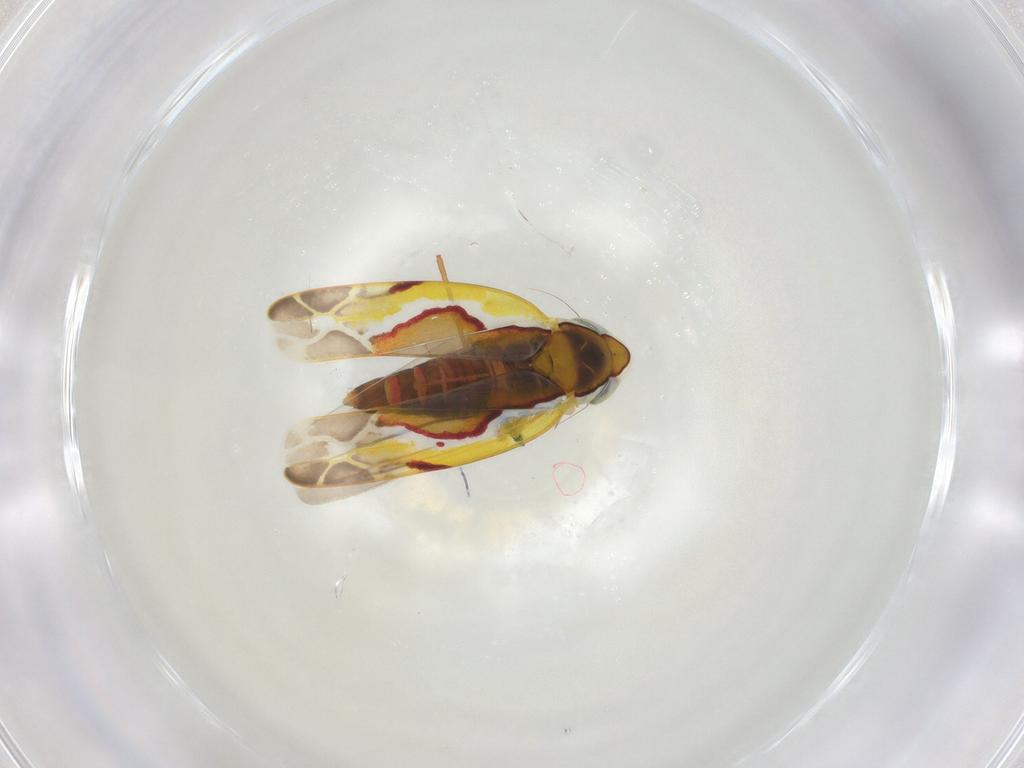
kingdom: Animalia
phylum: Arthropoda
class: Insecta
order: Hemiptera
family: Cicadellidae
